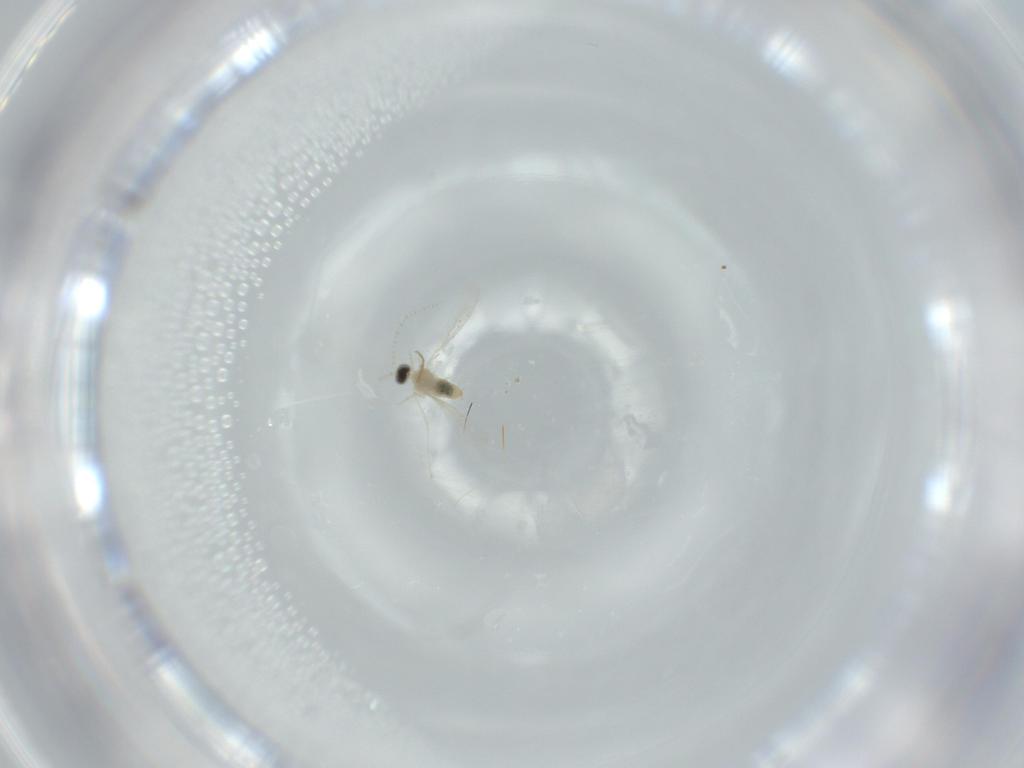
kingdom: Animalia
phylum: Arthropoda
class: Insecta
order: Diptera
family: Cecidomyiidae
